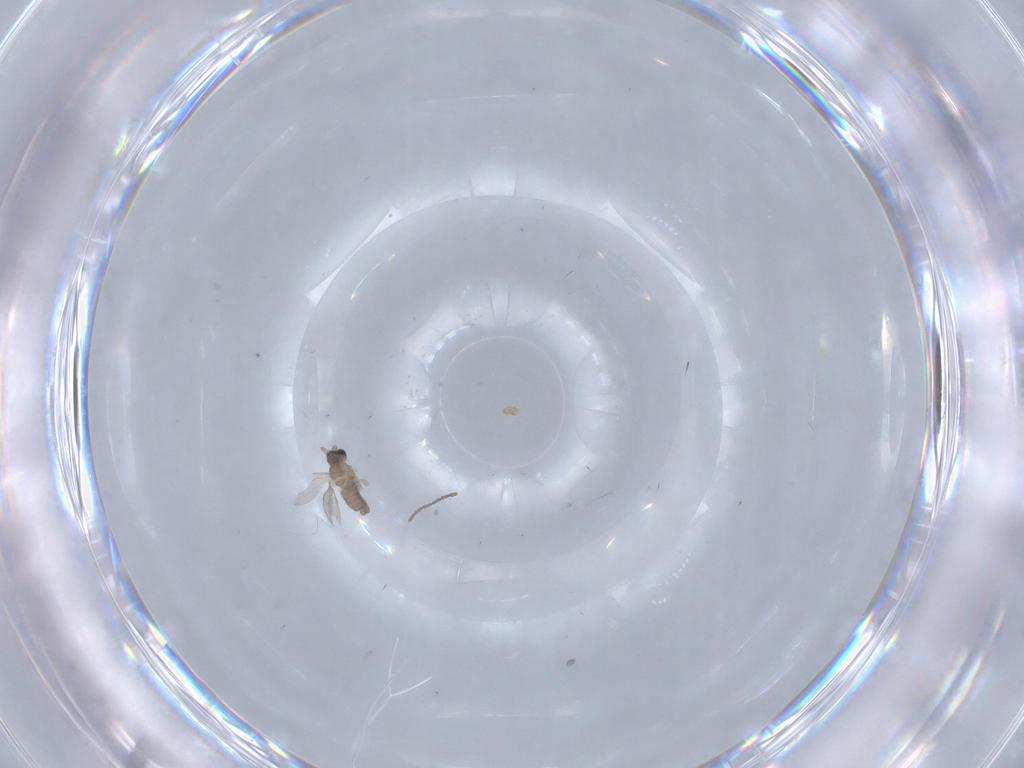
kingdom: Animalia
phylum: Arthropoda
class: Insecta
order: Diptera
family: Cecidomyiidae
